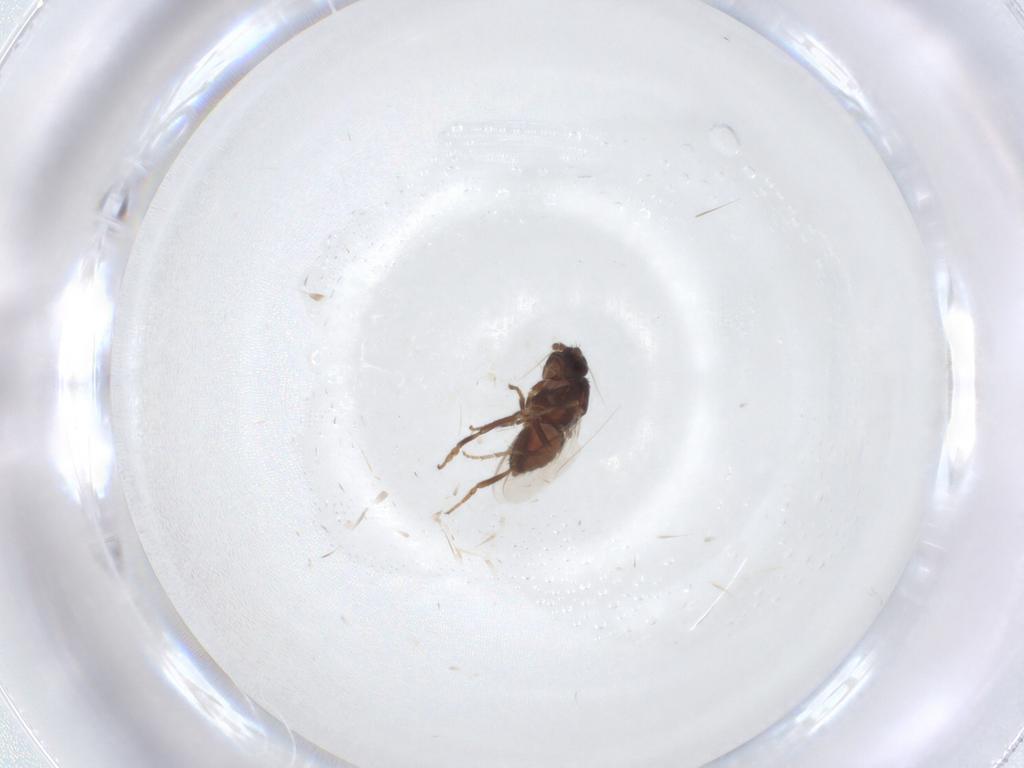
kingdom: Animalia
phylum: Arthropoda
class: Insecta
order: Diptera
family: Sphaeroceridae
